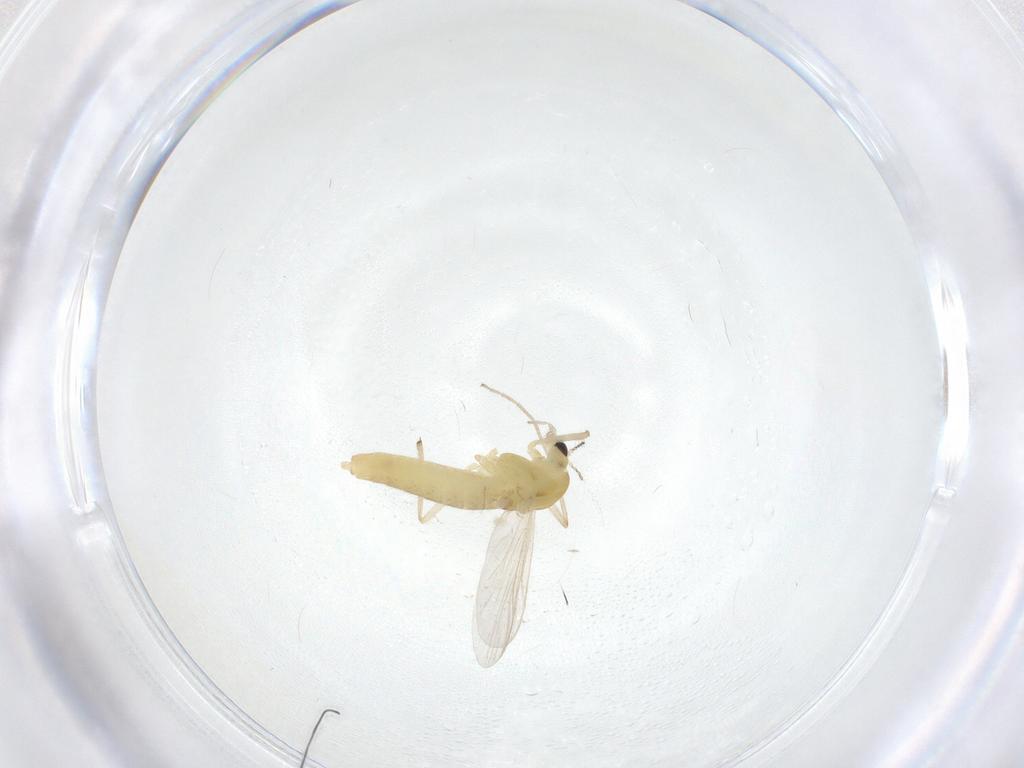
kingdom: Animalia
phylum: Arthropoda
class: Insecta
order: Diptera
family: Chironomidae
